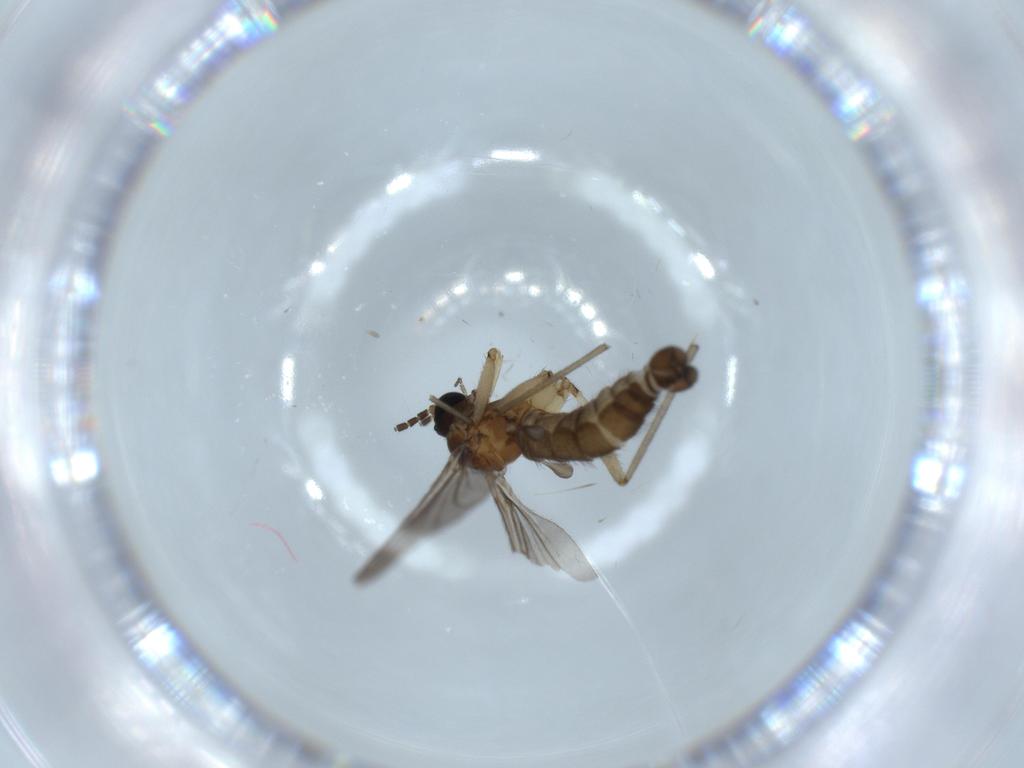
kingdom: Animalia
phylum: Arthropoda
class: Insecta
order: Diptera
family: Sciaridae
